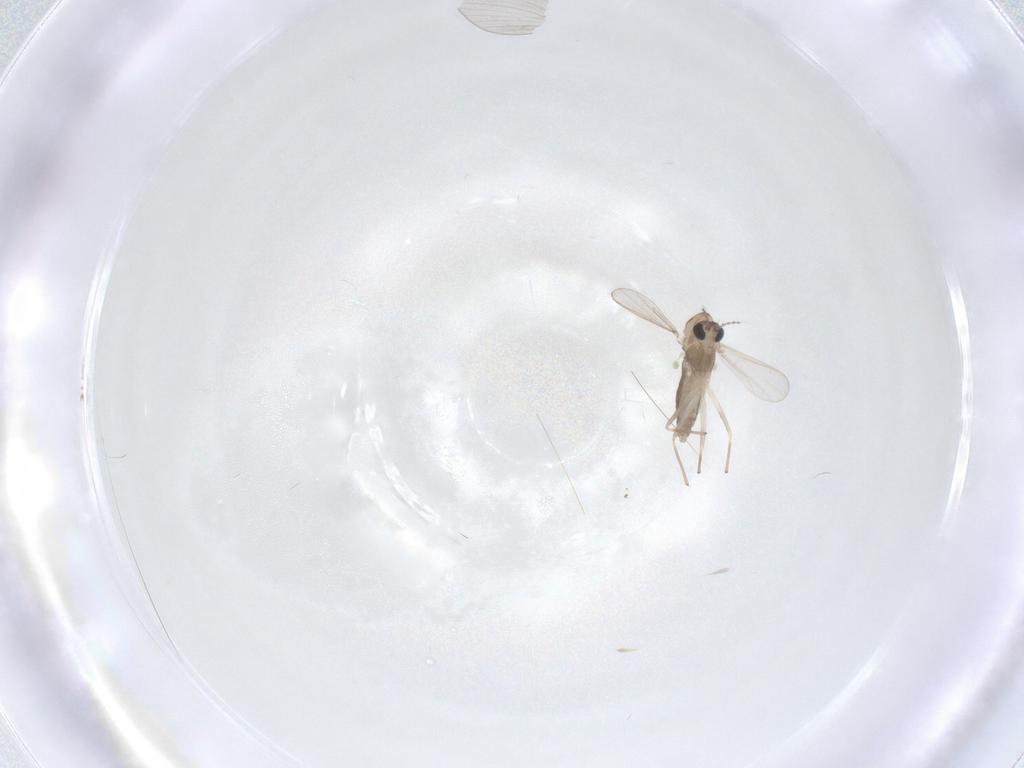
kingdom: Animalia
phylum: Arthropoda
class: Insecta
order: Diptera
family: Chironomidae
